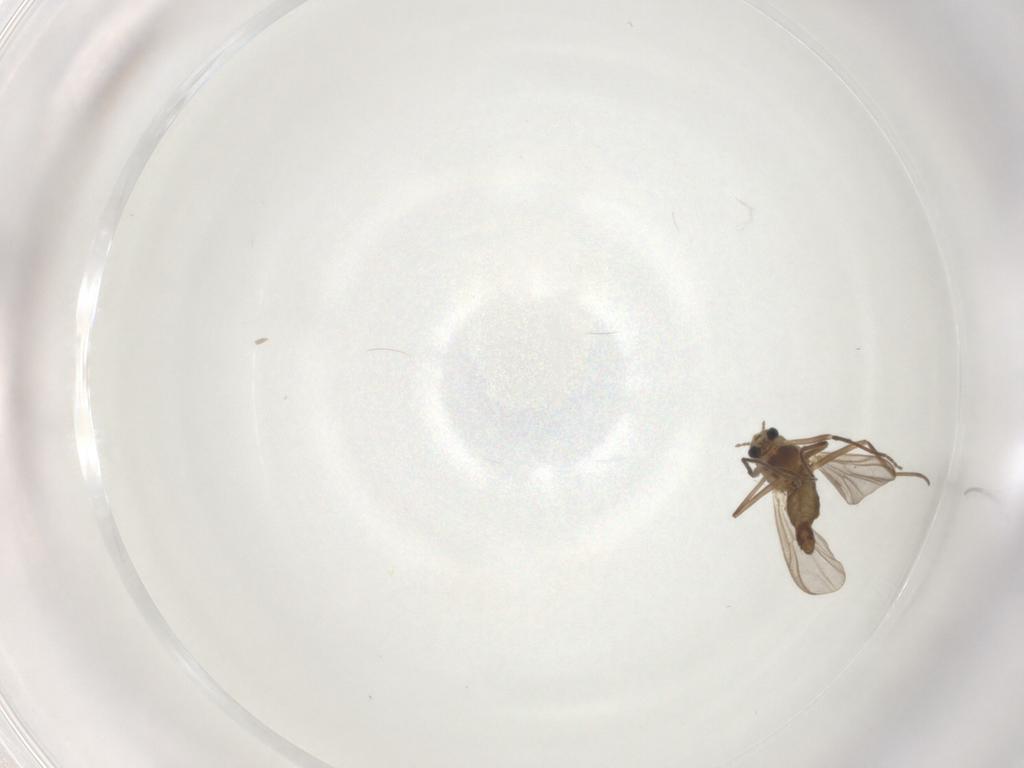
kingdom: Animalia
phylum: Arthropoda
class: Insecta
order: Diptera
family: Chironomidae
